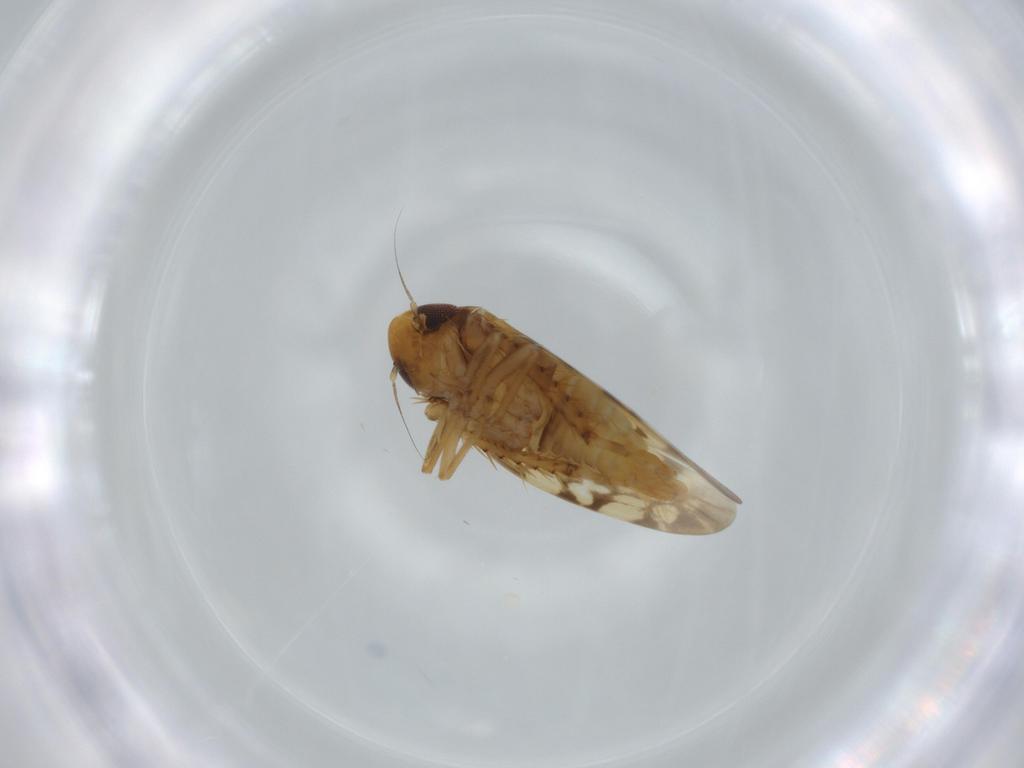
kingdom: Animalia
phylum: Arthropoda
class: Insecta
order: Hemiptera
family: Cicadellidae
